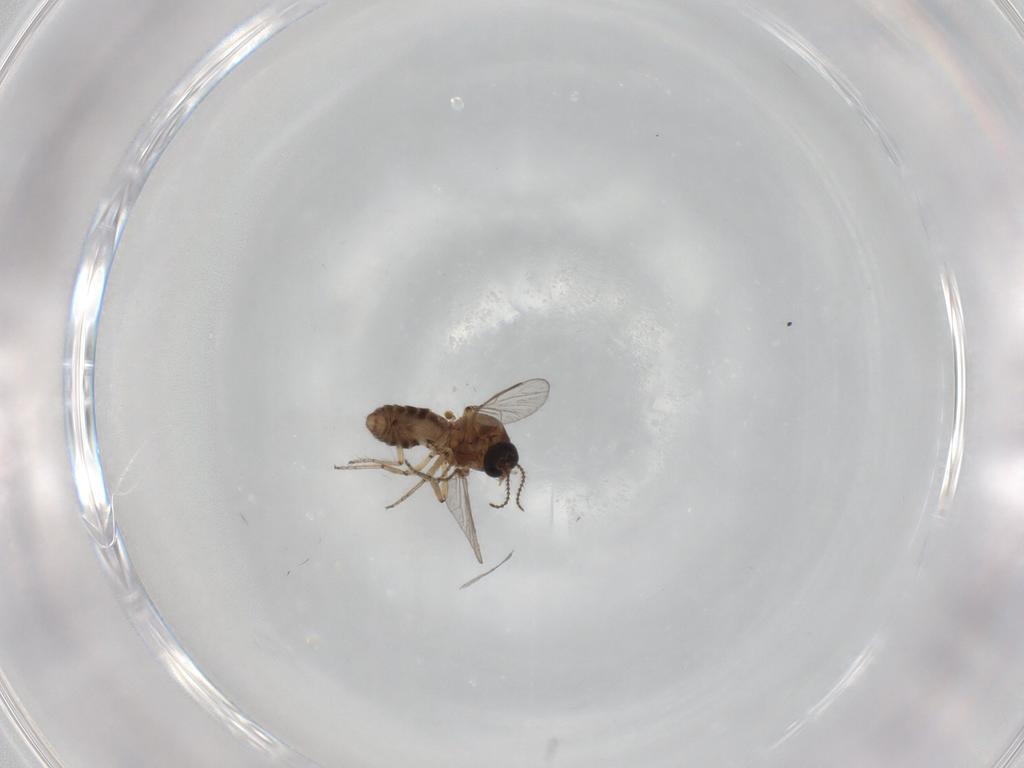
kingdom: Animalia
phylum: Arthropoda
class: Insecta
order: Diptera
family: Ceratopogonidae
